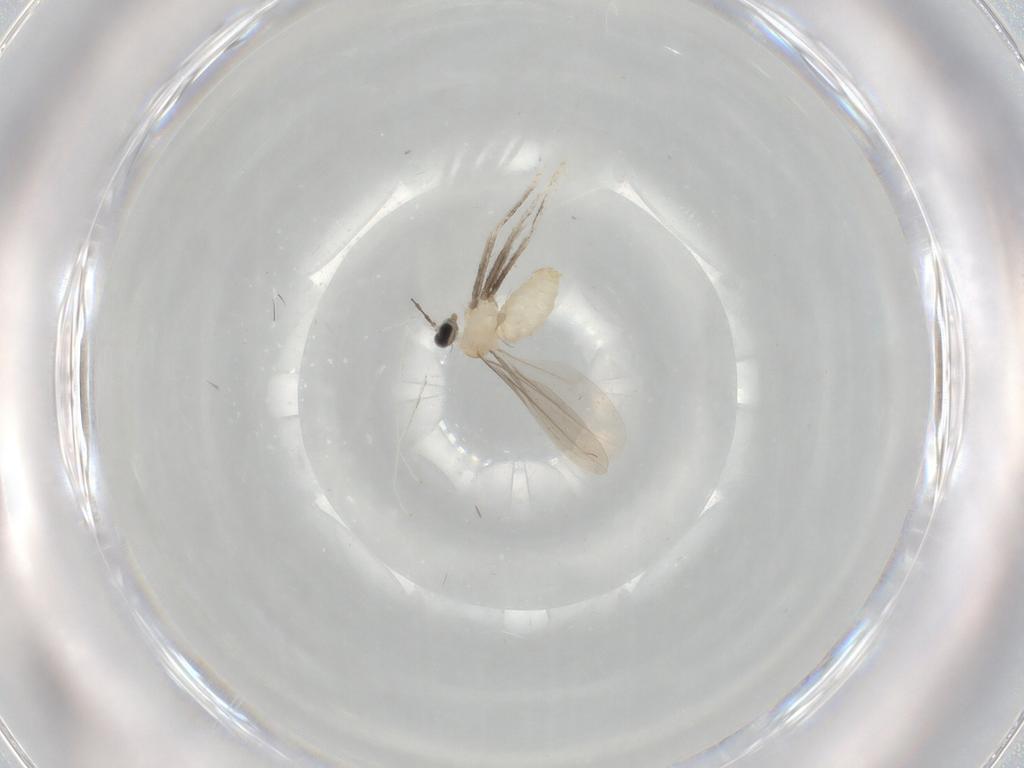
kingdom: Animalia
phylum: Arthropoda
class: Insecta
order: Diptera
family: Cecidomyiidae
